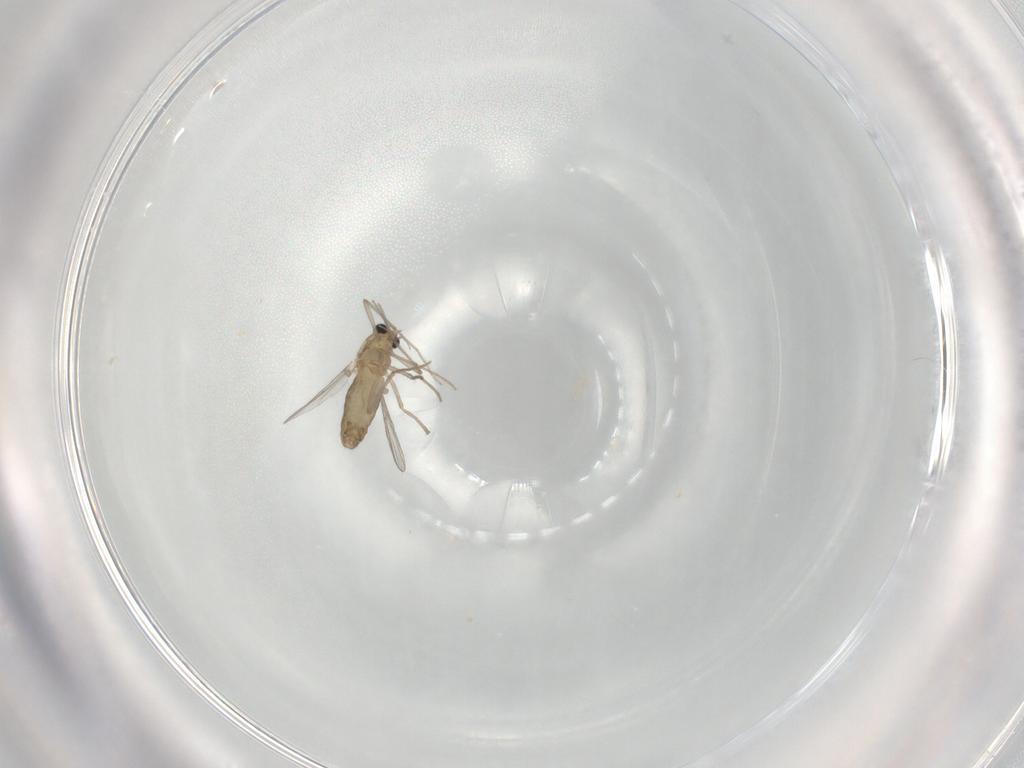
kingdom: Animalia
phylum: Arthropoda
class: Insecta
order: Diptera
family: Chironomidae
